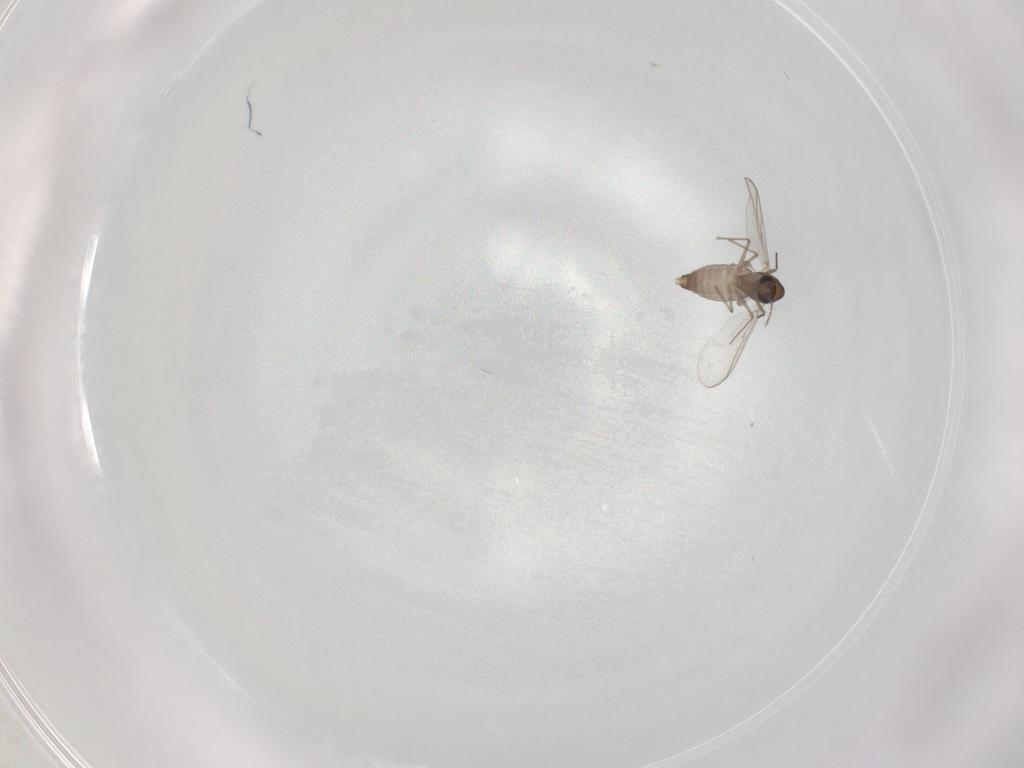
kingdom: Animalia
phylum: Arthropoda
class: Insecta
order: Diptera
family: Chironomidae
